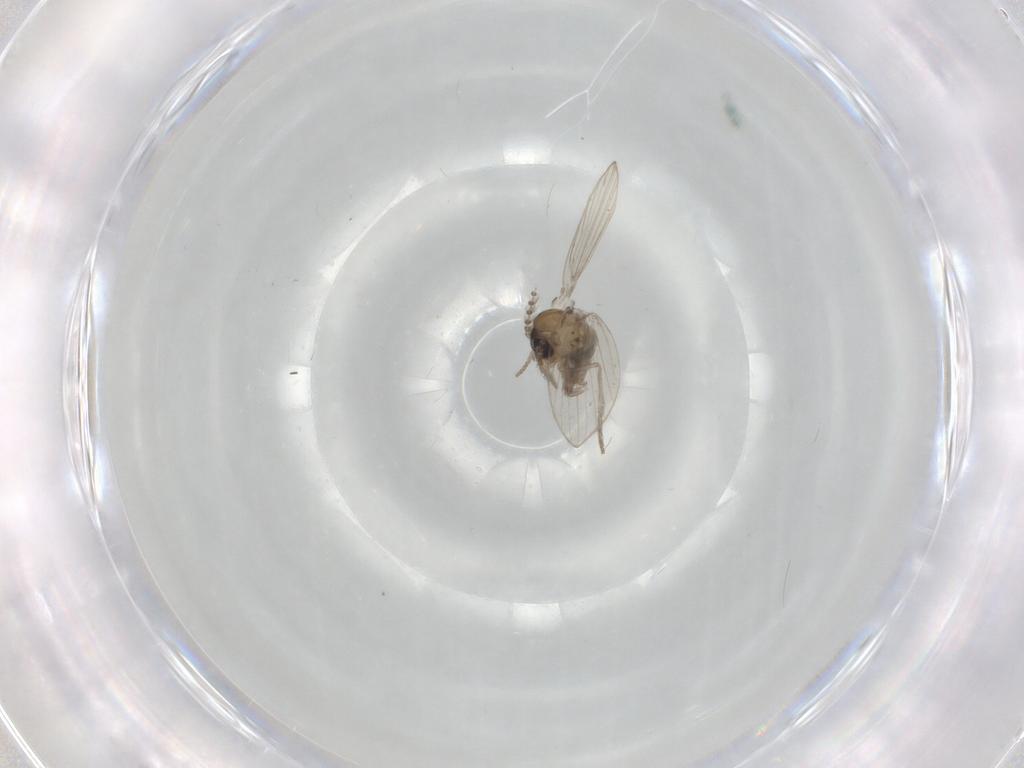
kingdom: Animalia
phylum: Arthropoda
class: Insecta
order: Diptera
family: Psychodidae
